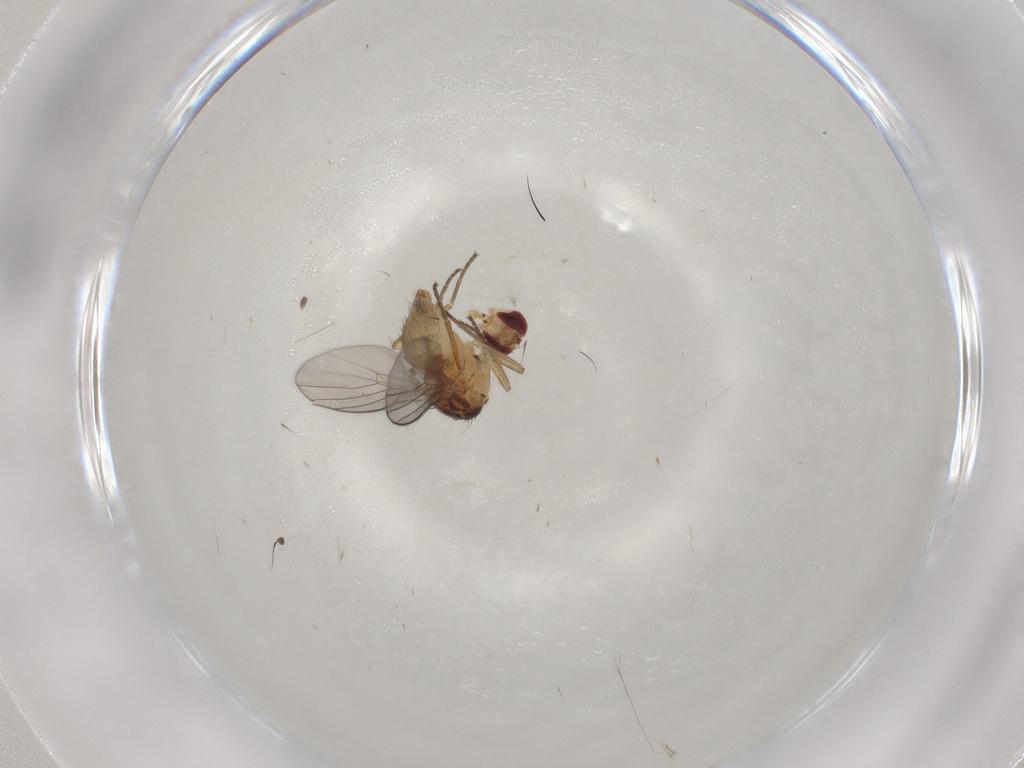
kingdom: Animalia
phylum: Arthropoda
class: Insecta
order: Diptera
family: Agromyzidae
